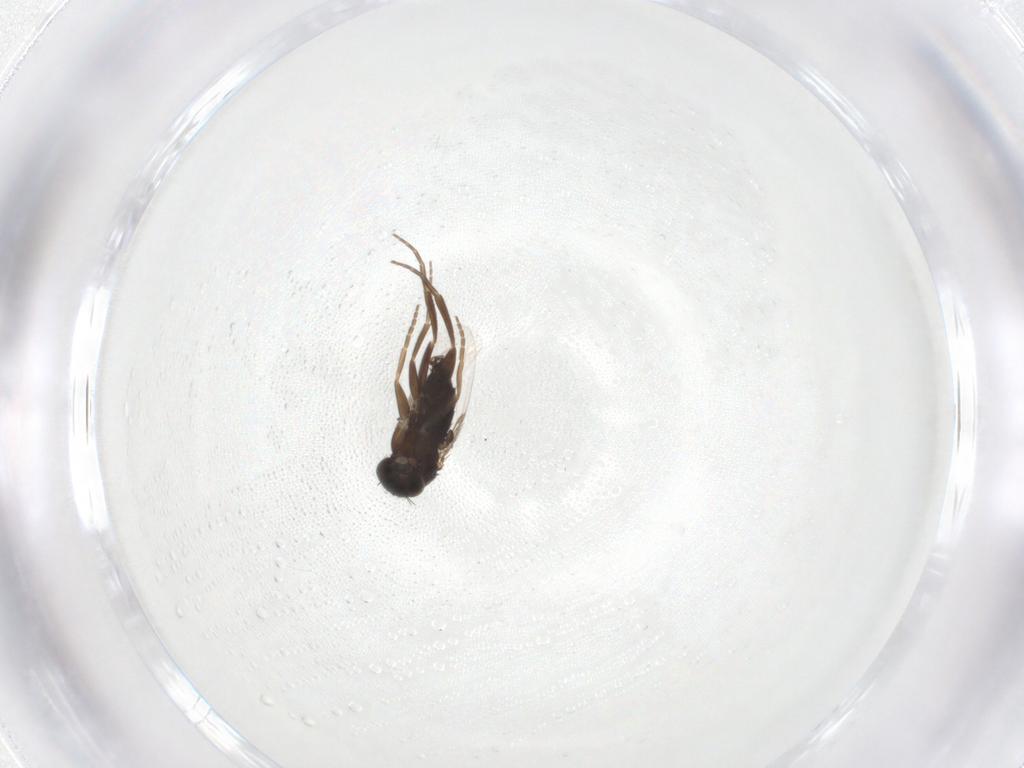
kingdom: Animalia
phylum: Arthropoda
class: Insecta
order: Diptera
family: Phoridae
